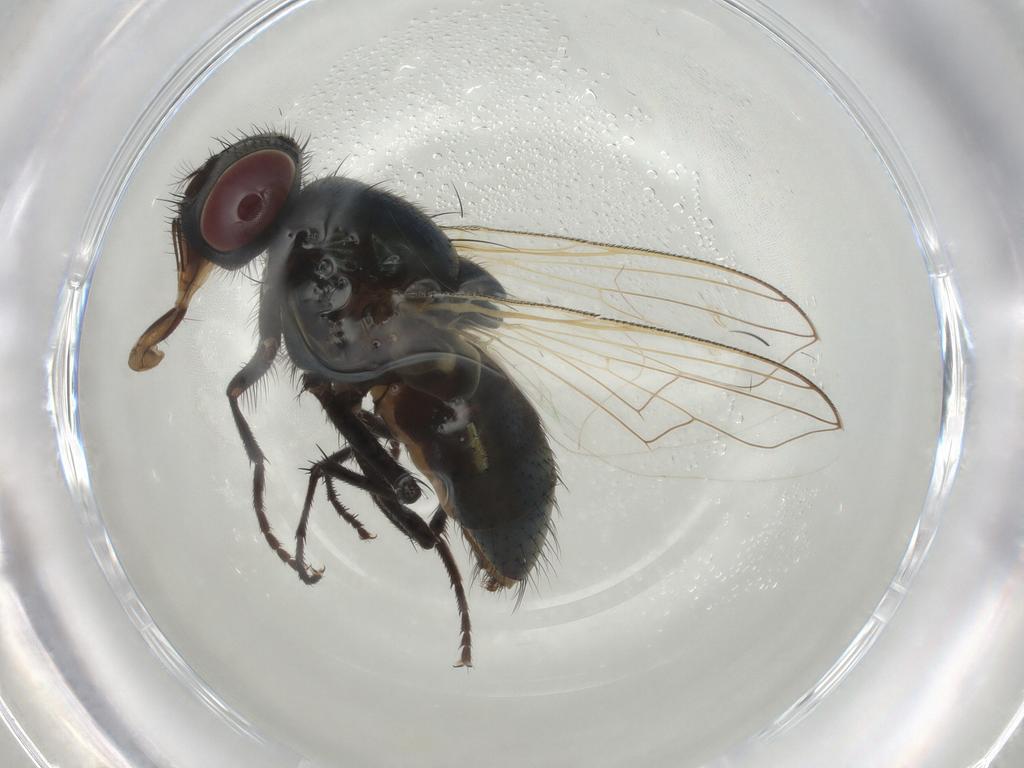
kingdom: Animalia
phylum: Arthropoda
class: Insecta
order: Diptera
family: Muscidae
